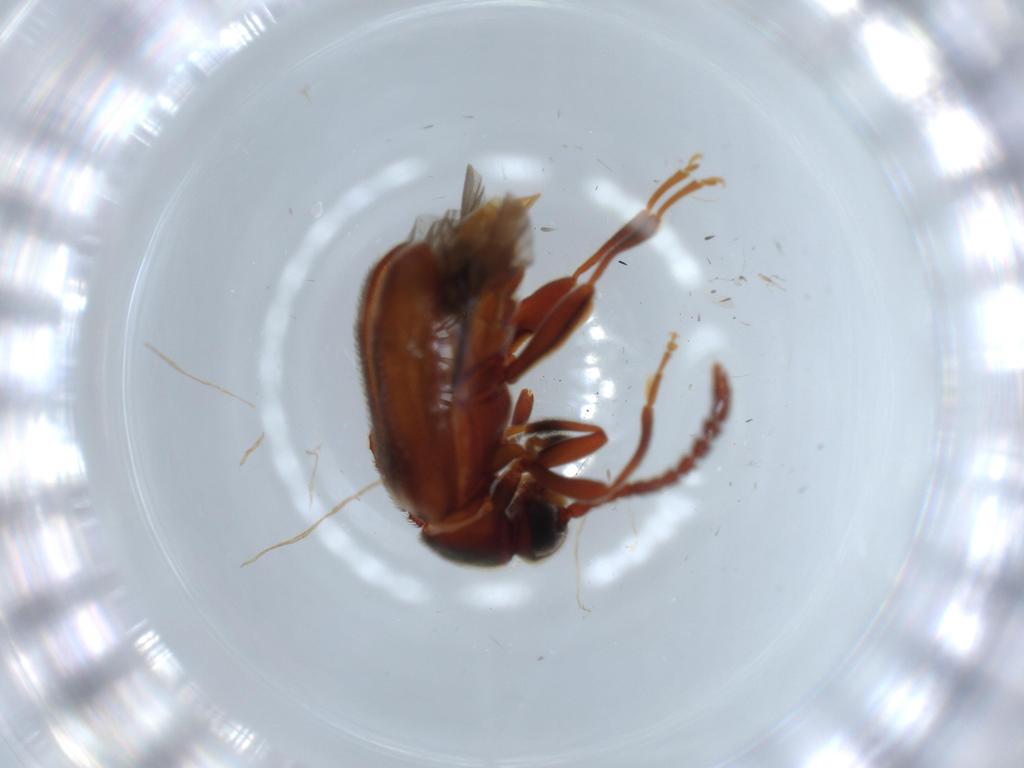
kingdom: Animalia
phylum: Arthropoda
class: Insecta
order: Coleoptera
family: Aderidae
